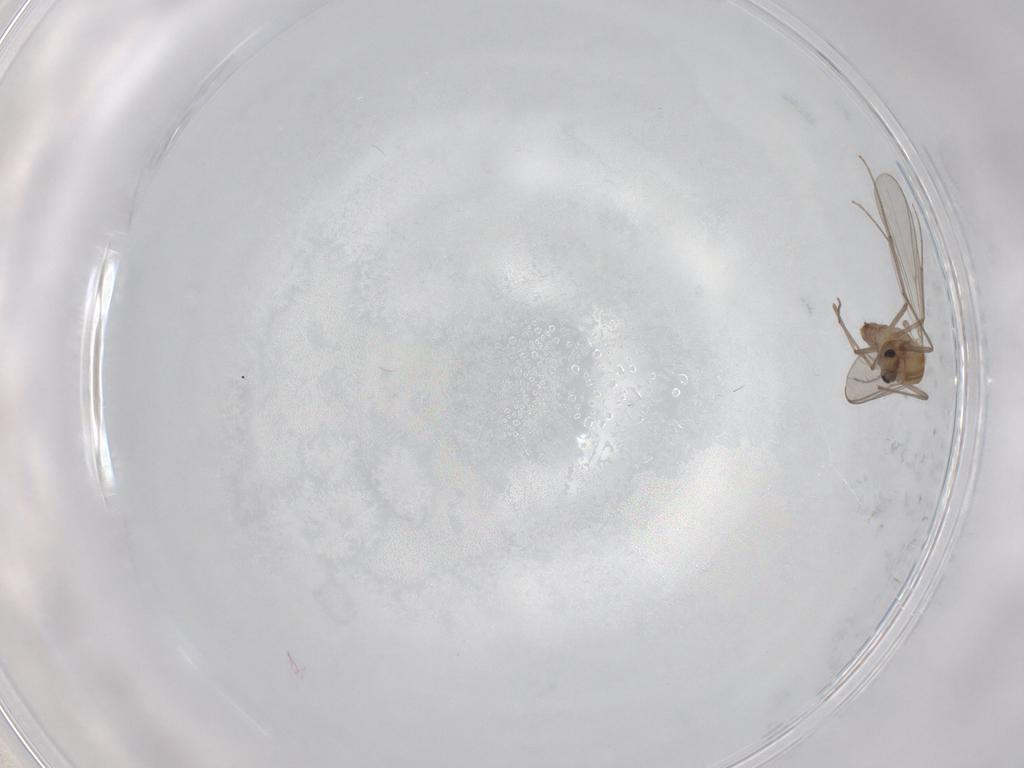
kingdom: Animalia
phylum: Arthropoda
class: Insecta
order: Diptera
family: Chironomidae
